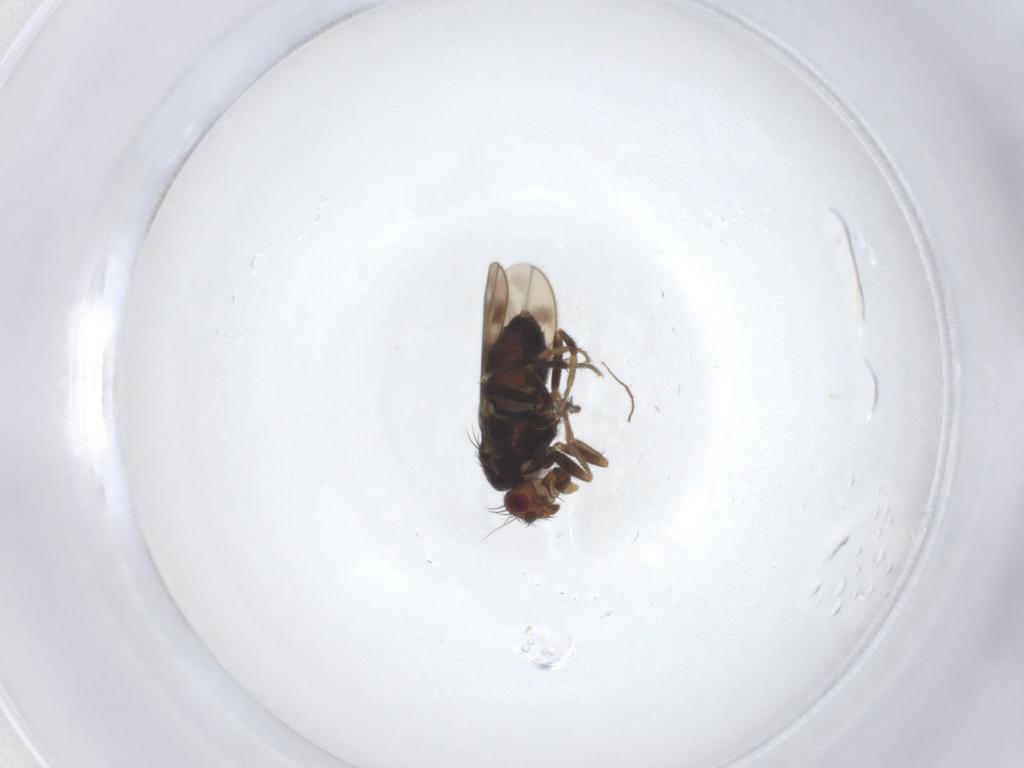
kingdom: Animalia
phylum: Arthropoda
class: Insecta
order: Diptera
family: Sphaeroceridae
